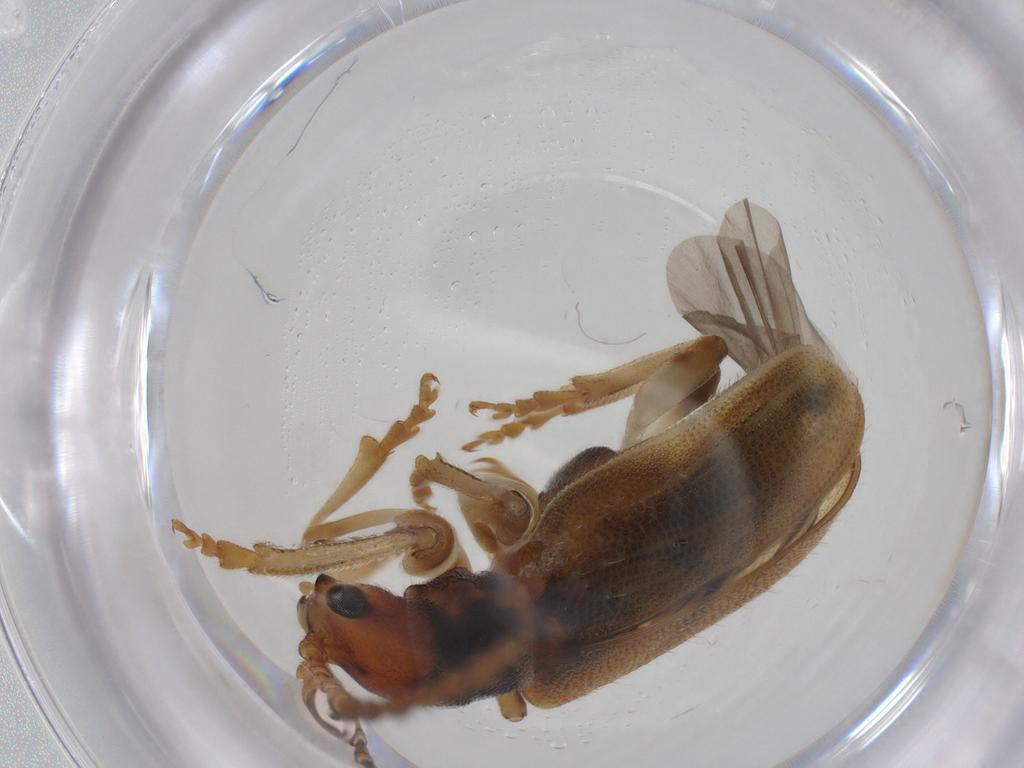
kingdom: Animalia
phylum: Arthropoda
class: Insecta
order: Coleoptera
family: Chrysomelidae
